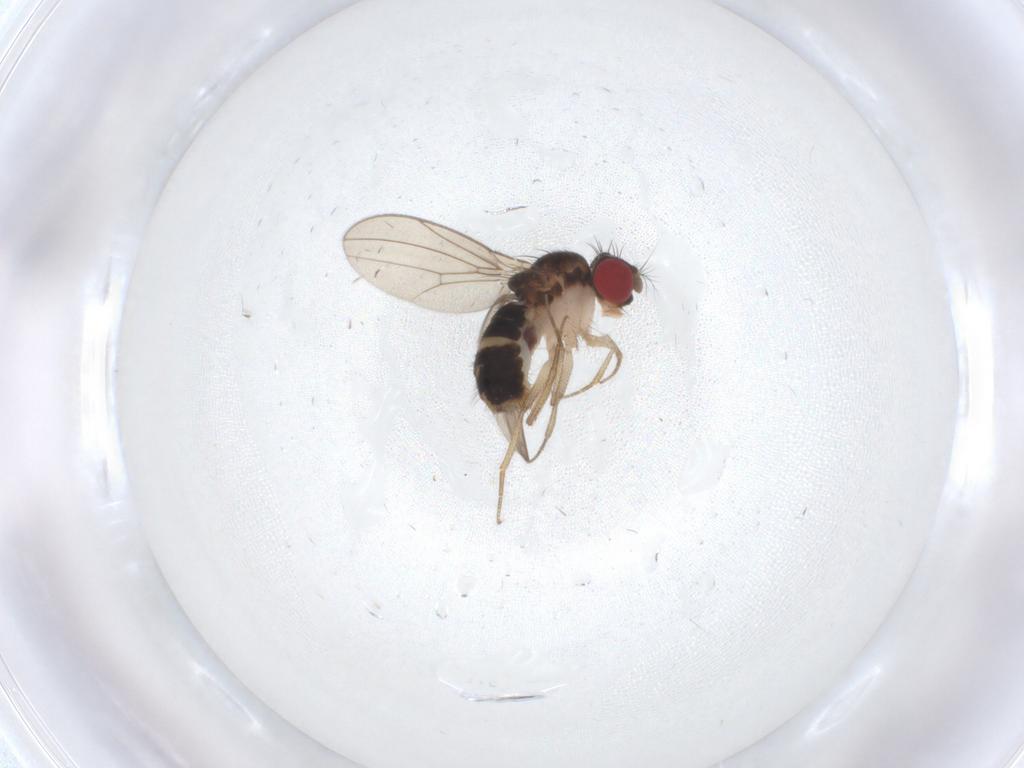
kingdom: Animalia
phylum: Arthropoda
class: Insecta
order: Diptera
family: Drosophilidae
